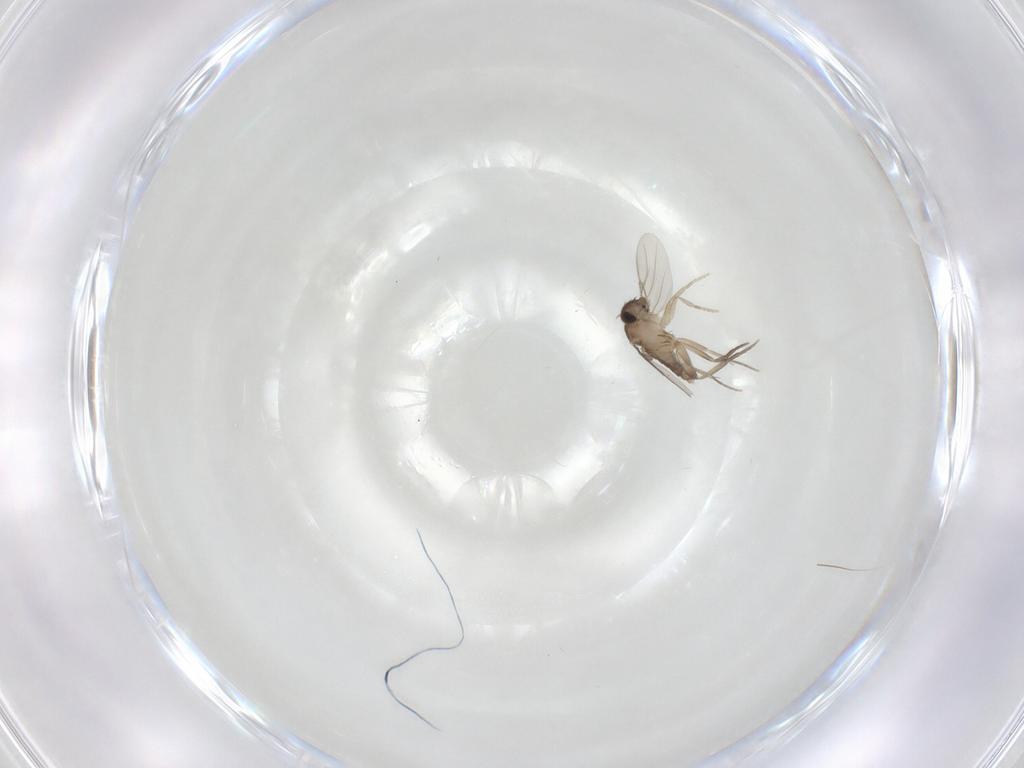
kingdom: Animalia
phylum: Arthropoda
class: Insecta
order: Diptera
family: Phoridae
